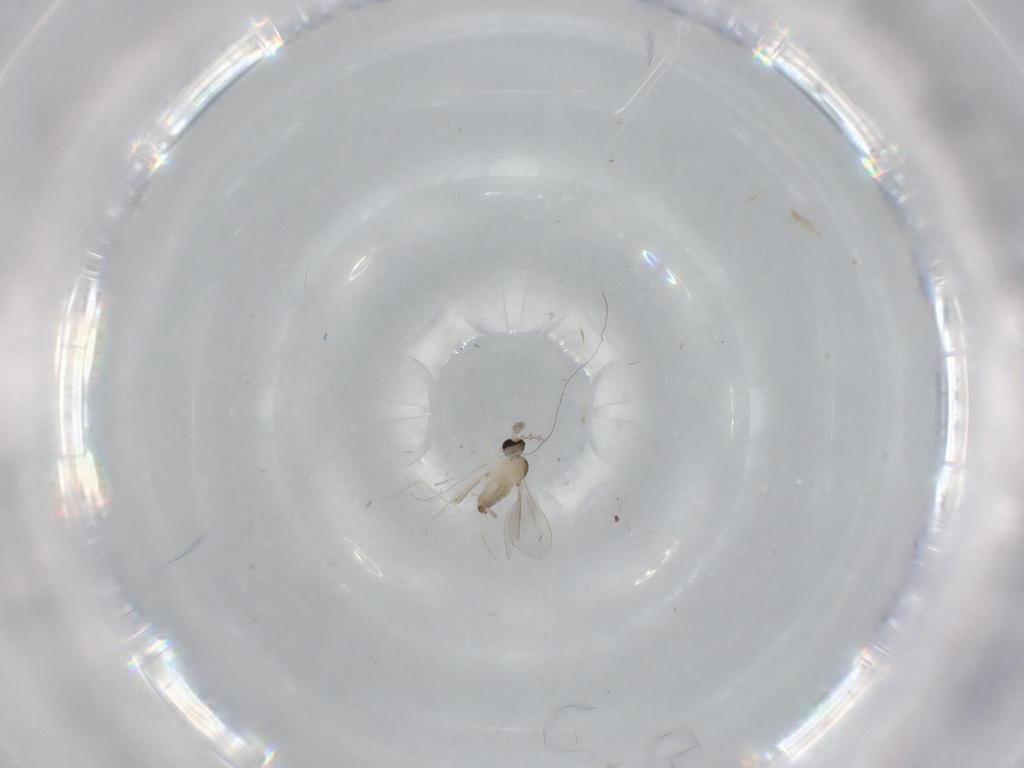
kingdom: Animalia
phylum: Arthropoda
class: Insecta
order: Diptera
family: Cecidomyiidae
